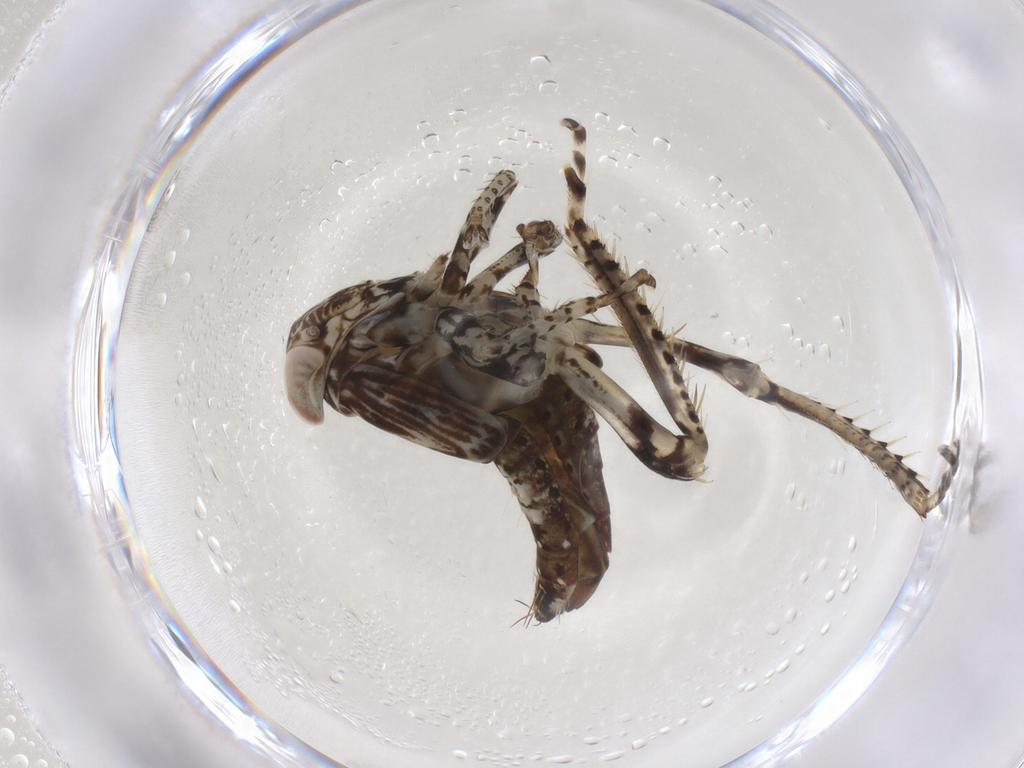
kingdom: Animalia
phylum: Arthropoda
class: Insecta
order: Hemiptera
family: Cicadellidae
